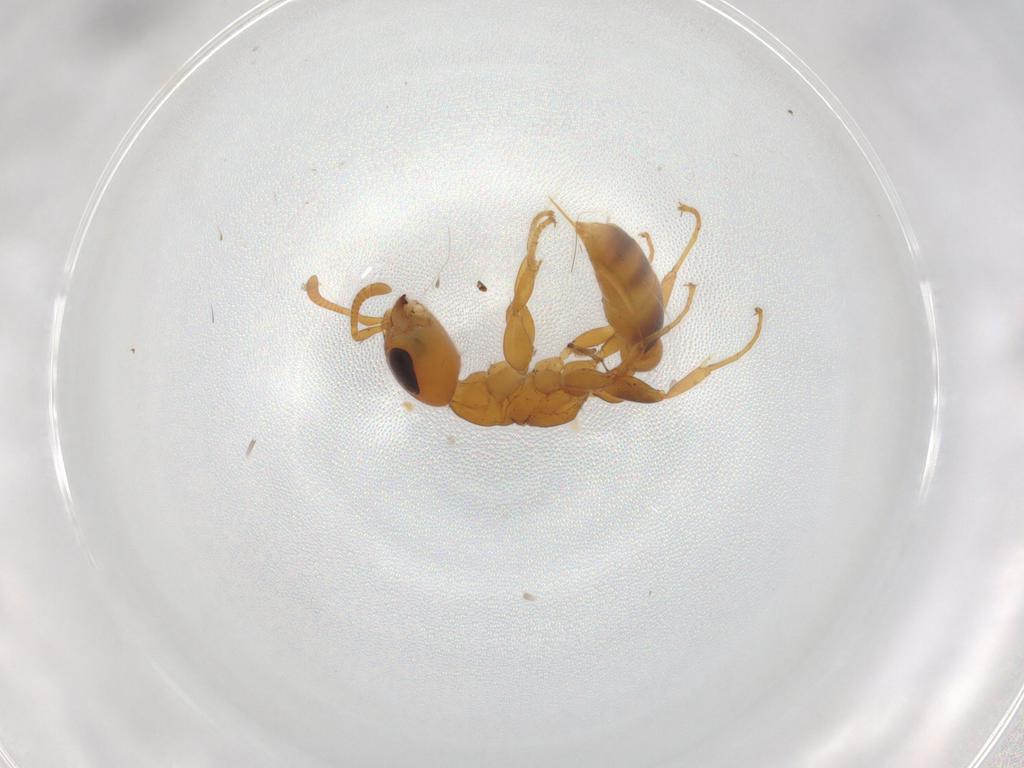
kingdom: Animalia
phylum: Arthropoda
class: Insecta
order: Hymenoptera
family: Formicidae
